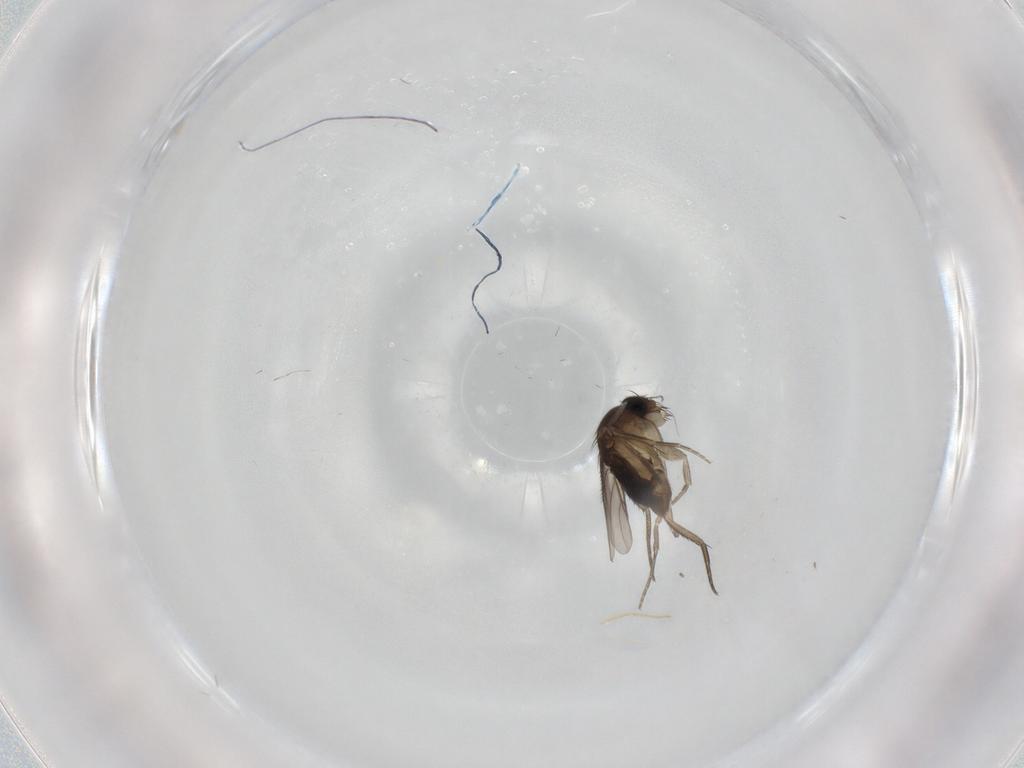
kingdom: Animalia
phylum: Arthropoda
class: Insecta
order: Diptera
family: Phoridae
